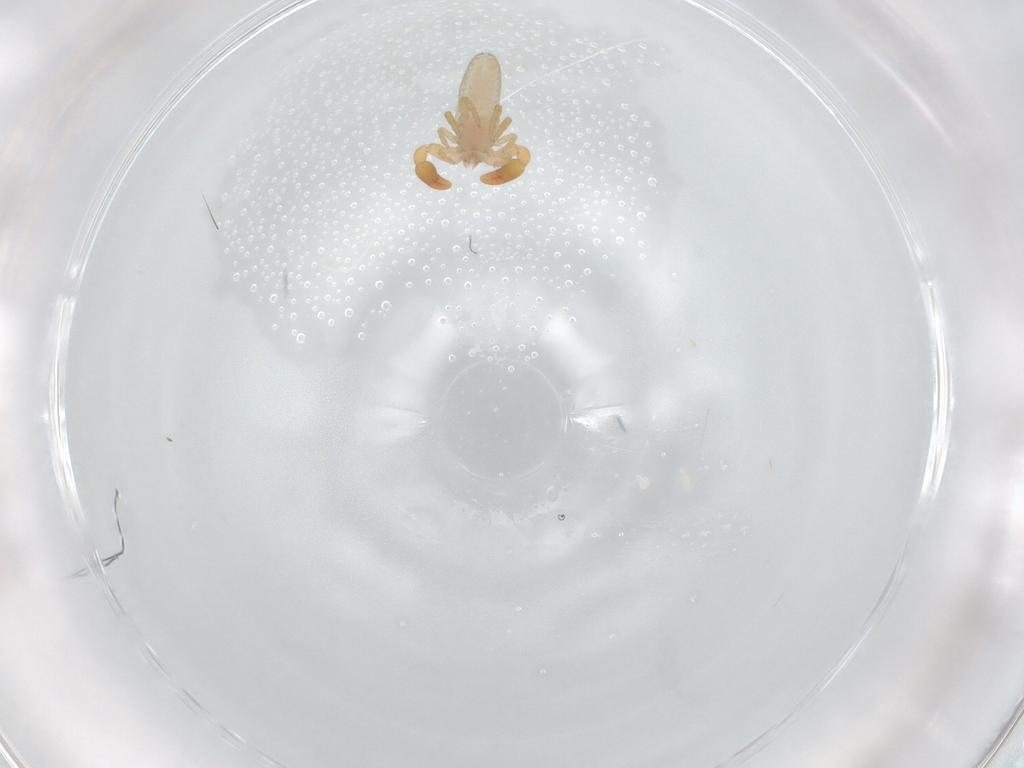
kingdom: Animalia
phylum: Arthropoda
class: Arachnida
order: Pseudoscorpiones
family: Chernetidae
